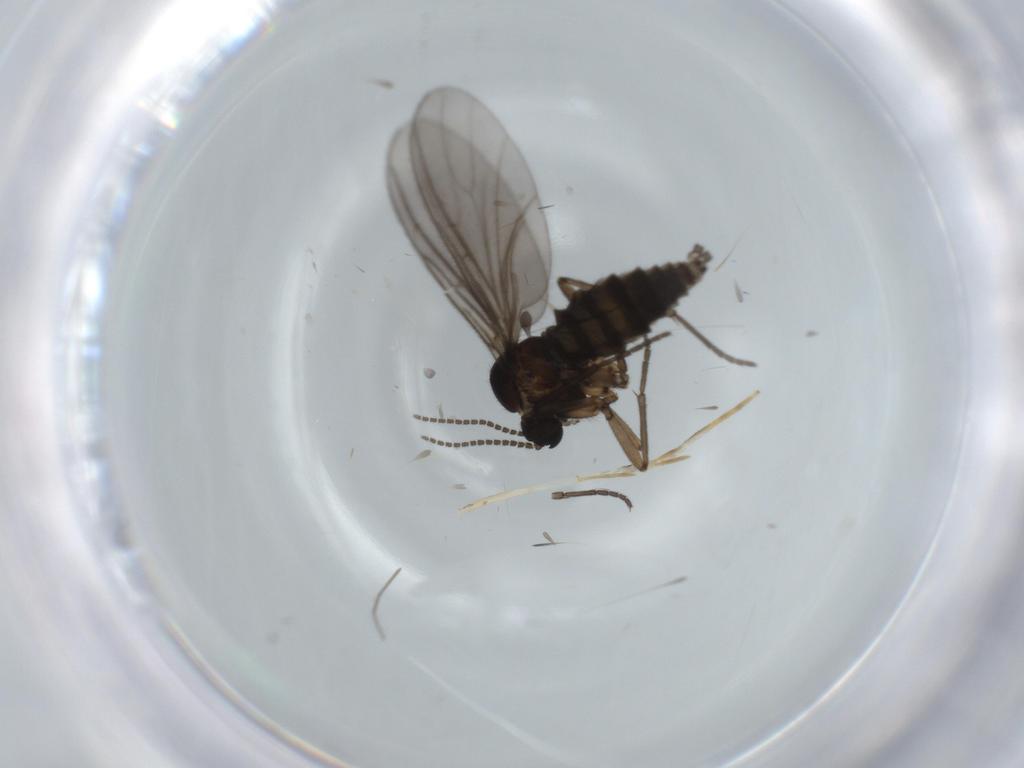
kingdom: Animalia
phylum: Arthropoda
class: Insecta
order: Diptera
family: Sciaridae
